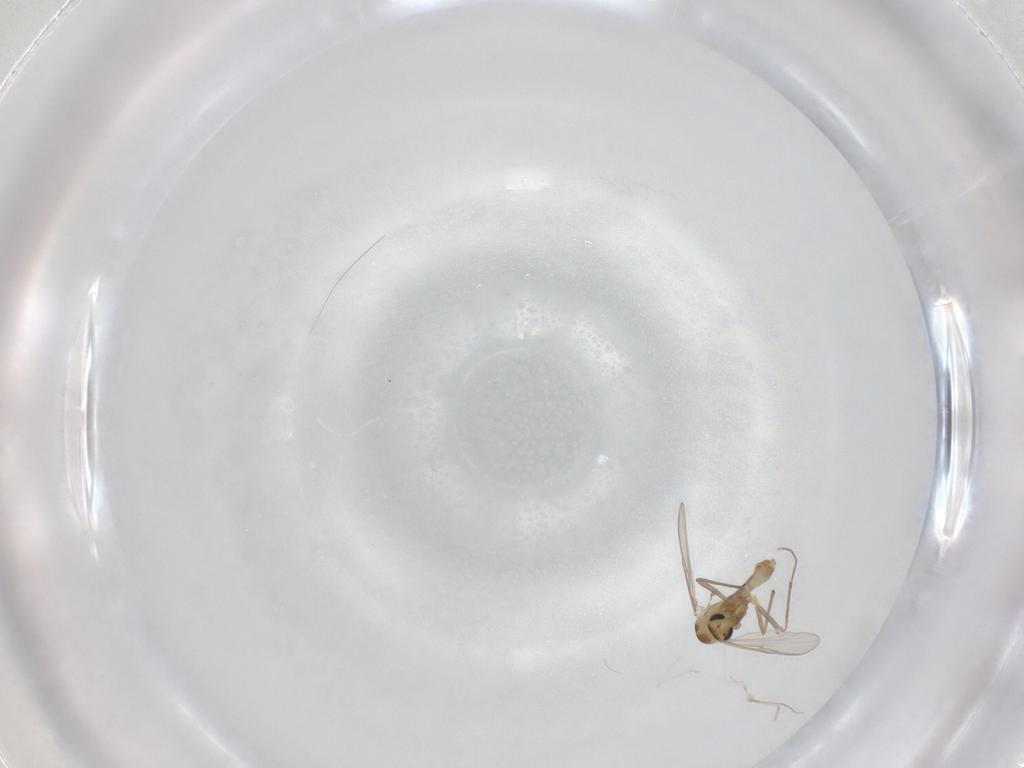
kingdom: Animalia
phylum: Arthropoda
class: Insecta
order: Diptera
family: Chironomidae
